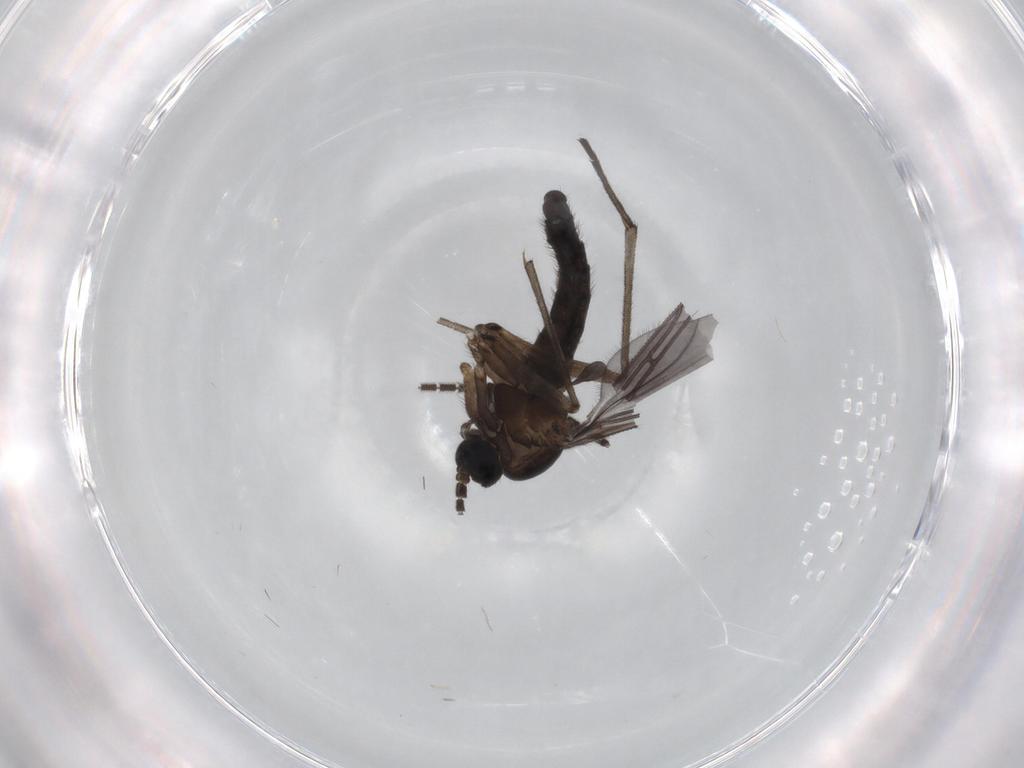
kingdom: Animalia
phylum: Arthropoda
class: Insecta
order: Diptera
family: Sciaridae
